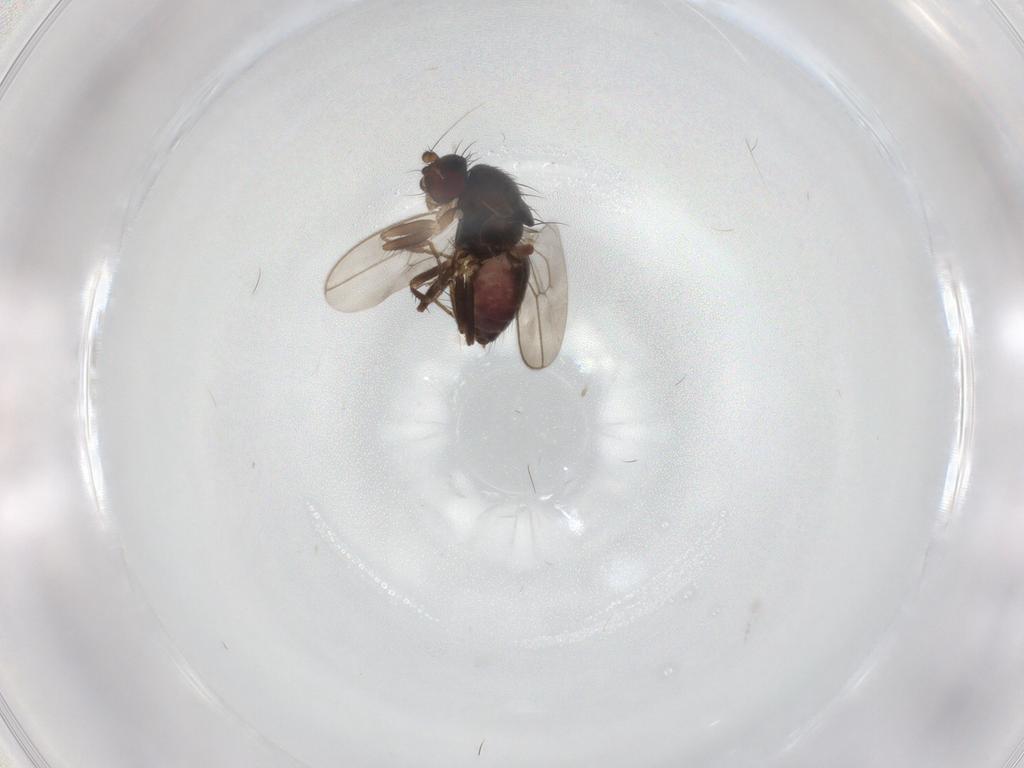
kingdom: Animalia
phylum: Arthropoda
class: Insecta
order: Diptera
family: Sphaeroceridae
